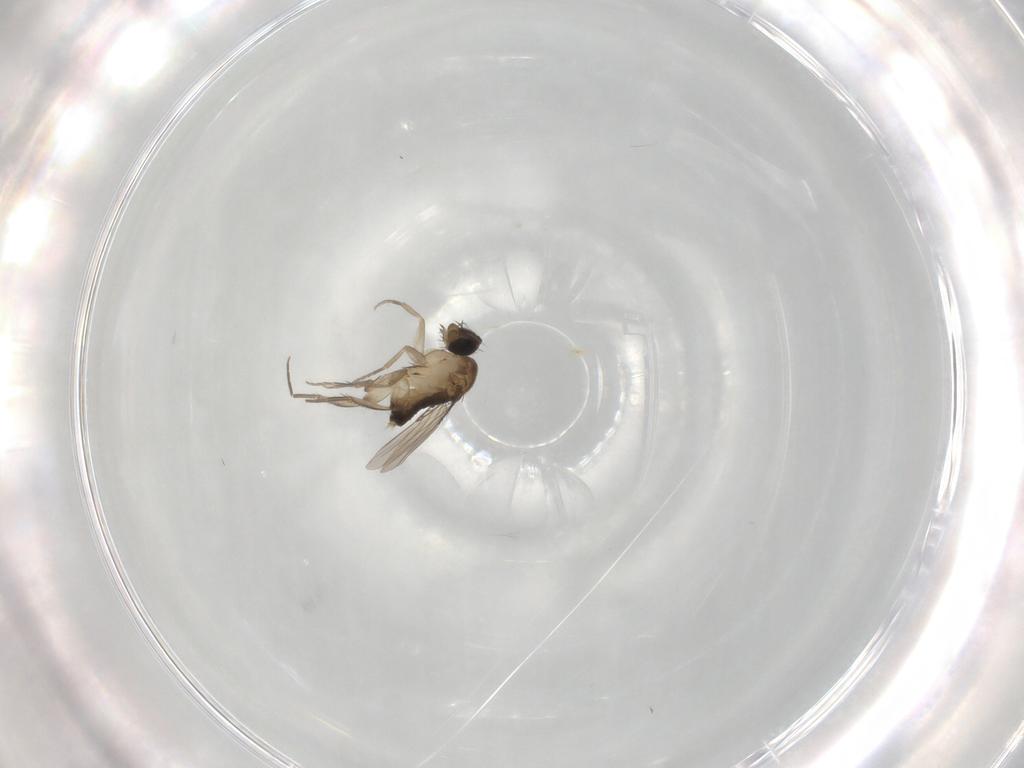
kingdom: Animalia
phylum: Arthropoda
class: Insecta
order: Diptera
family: Phoridae
